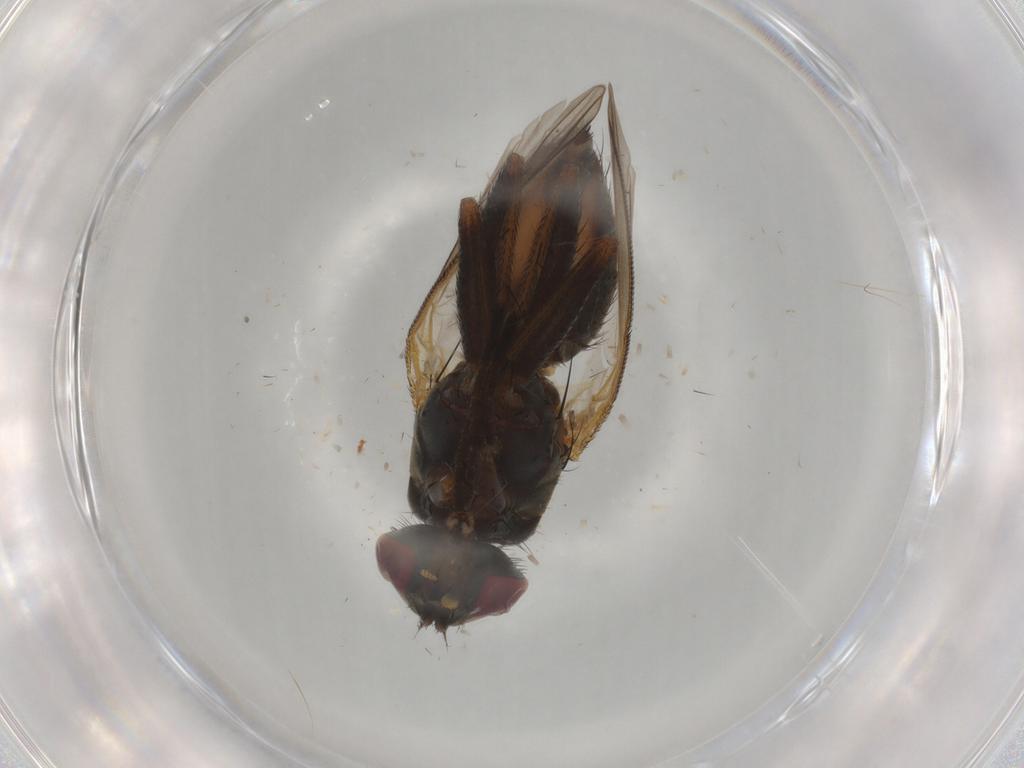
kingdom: Animalia
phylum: Arthropoda
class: Insecta
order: Diptera
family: Muscidae
